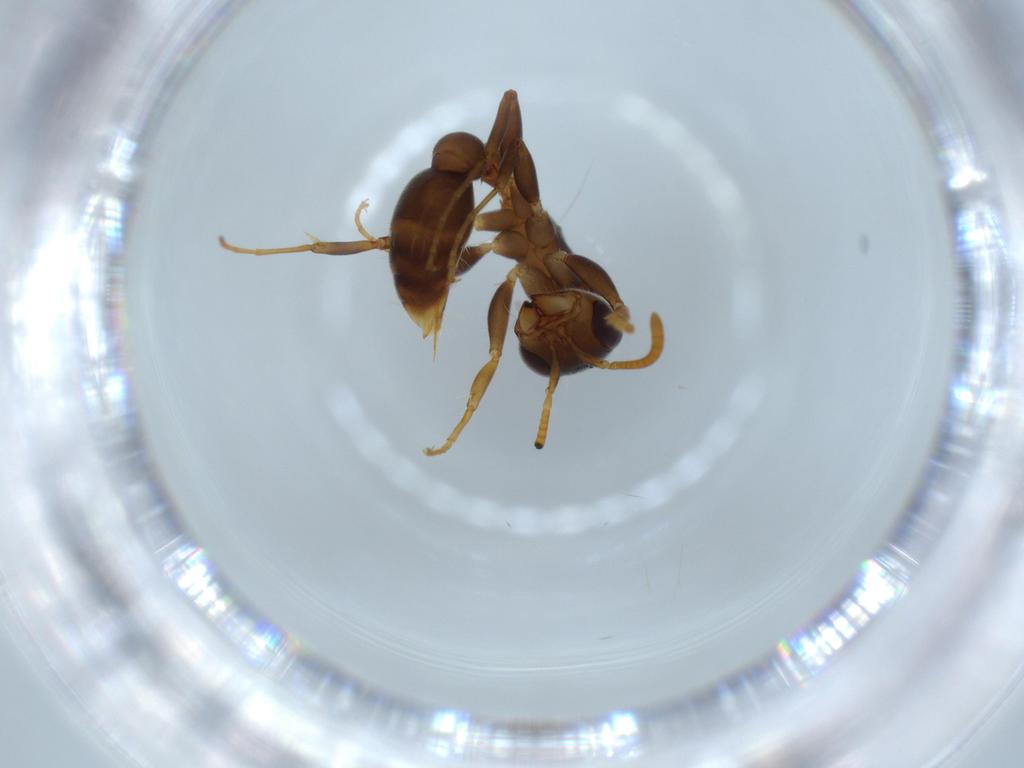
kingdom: Animalia
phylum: Arthropoda
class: Insecta
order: Hymenoptera
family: Formicidae
